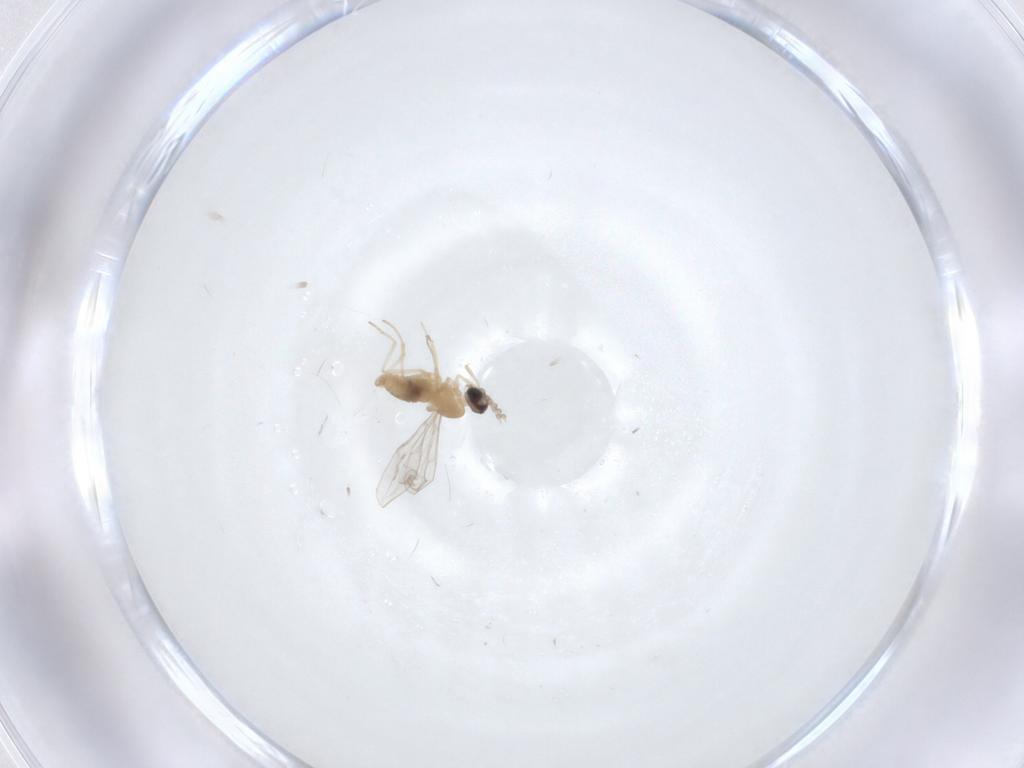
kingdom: Animalia
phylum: Arthropoda
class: Insecta
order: Diptera
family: Cecidomyiidae
